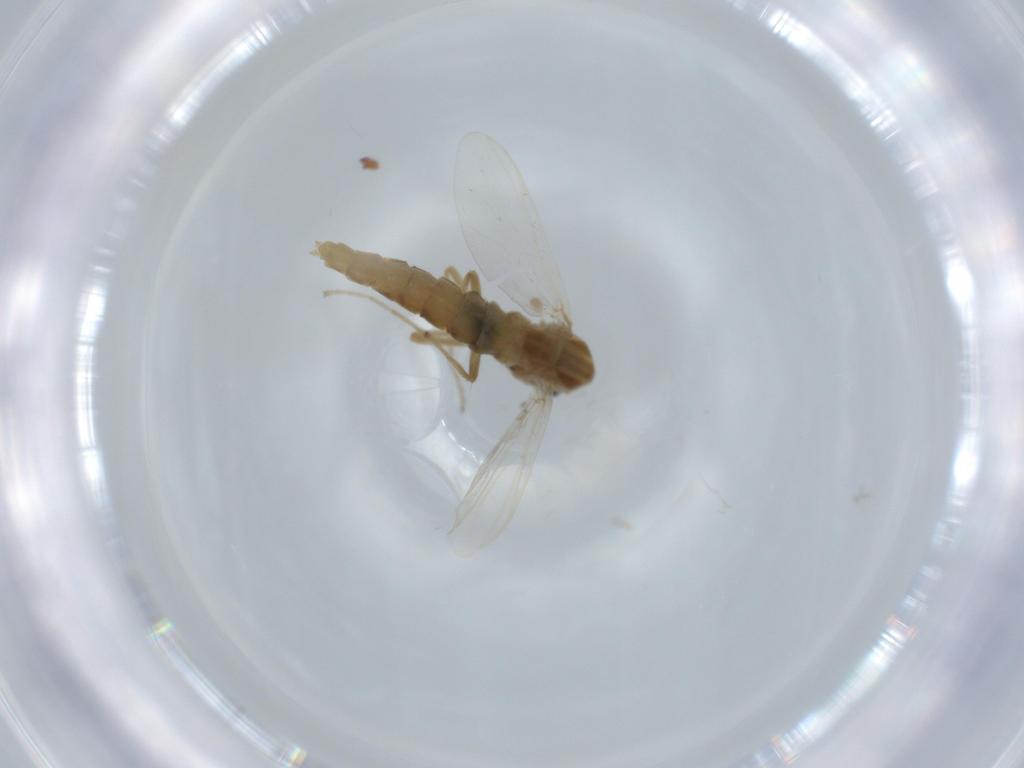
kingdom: Animalia
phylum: Arthropoda
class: Insecta
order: Diptera
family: Chironomidae
